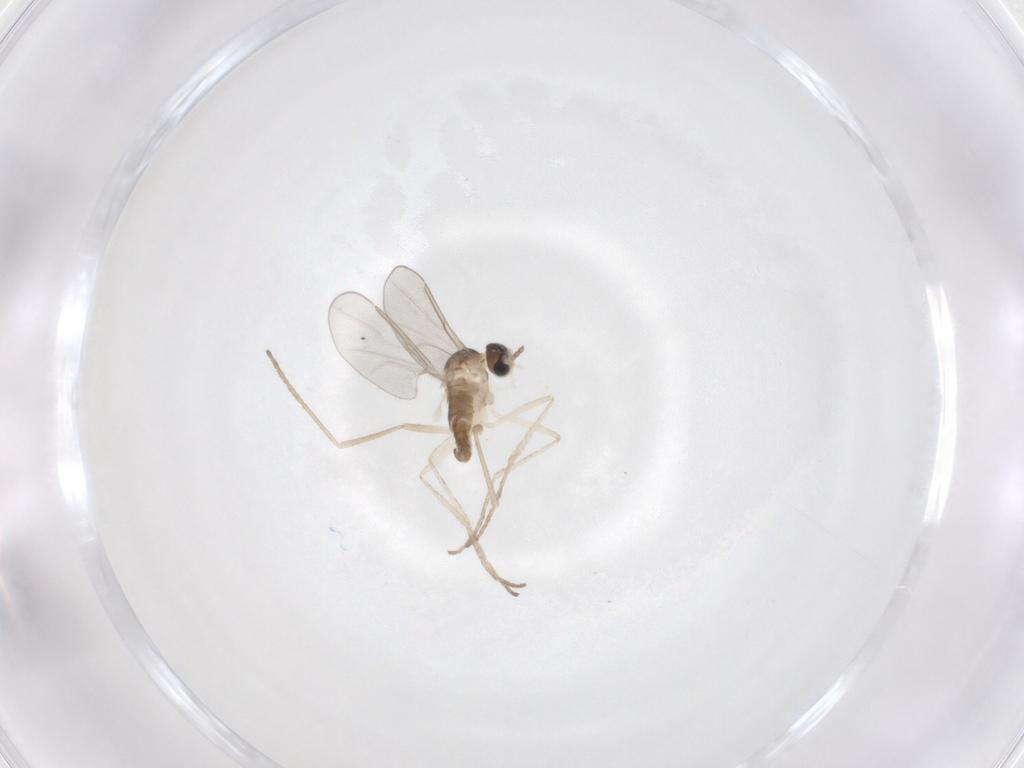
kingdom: Animalia
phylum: Arthropoda
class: Insecta
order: Diptera
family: Cecidomyiidae
